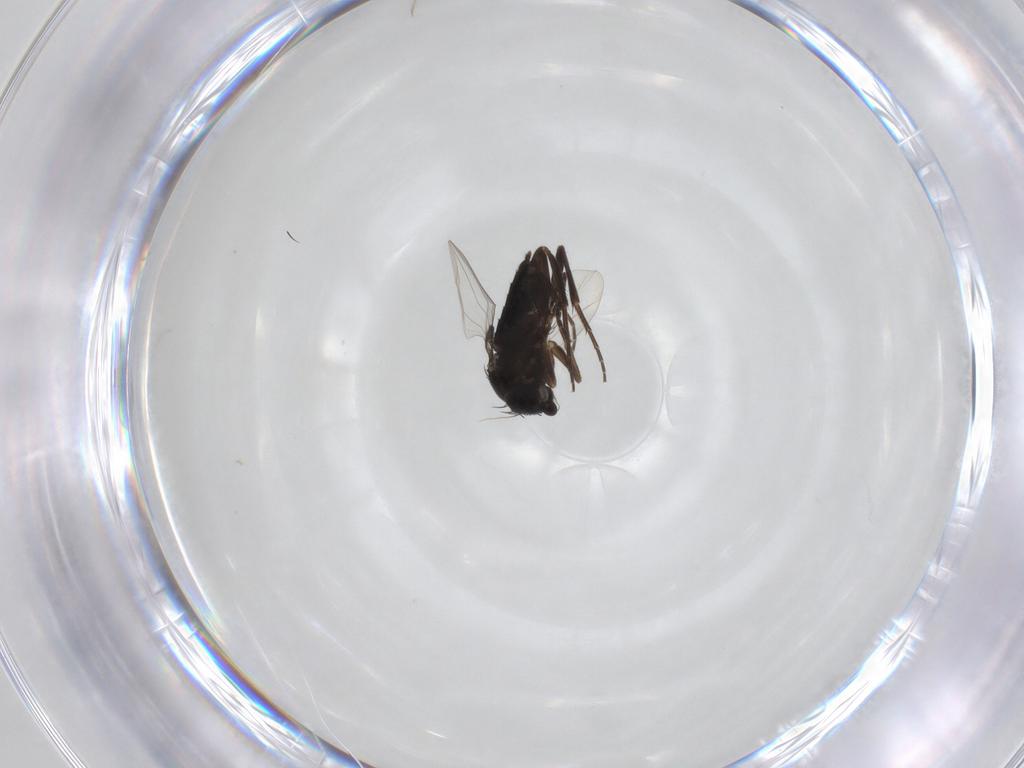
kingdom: Animalia
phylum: Arthropoda
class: Insecta
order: Diptera
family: Phoridae
